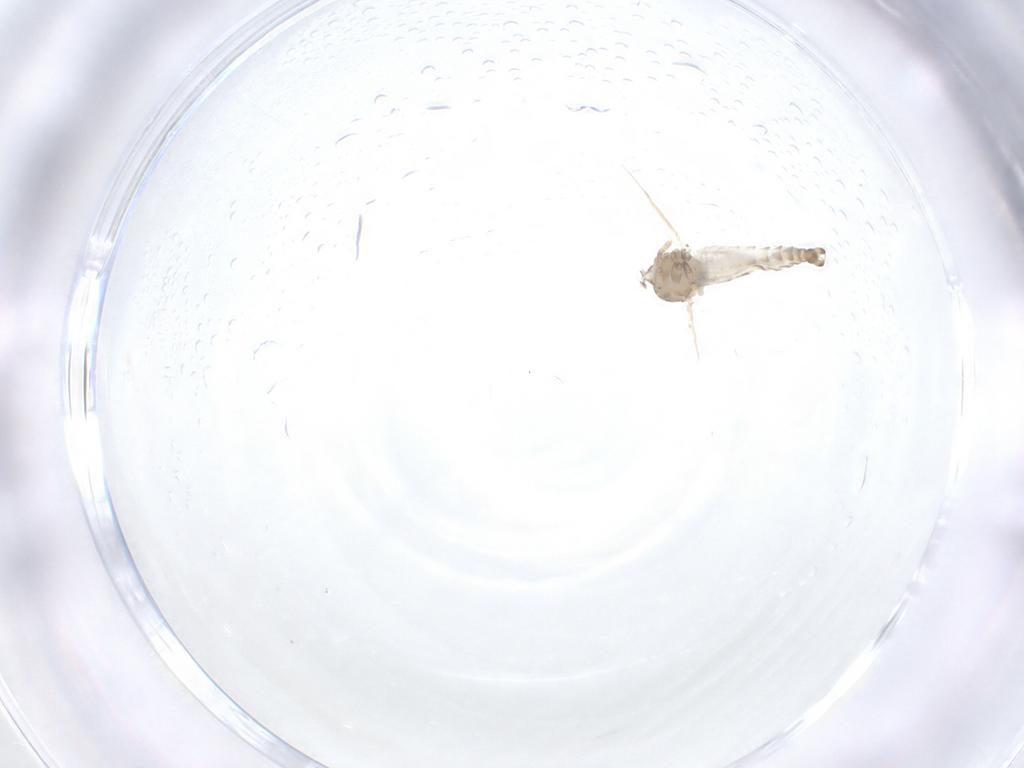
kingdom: Animalia
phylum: Arthropoda
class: Insecta
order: Diptera
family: Ceratopogonidae
